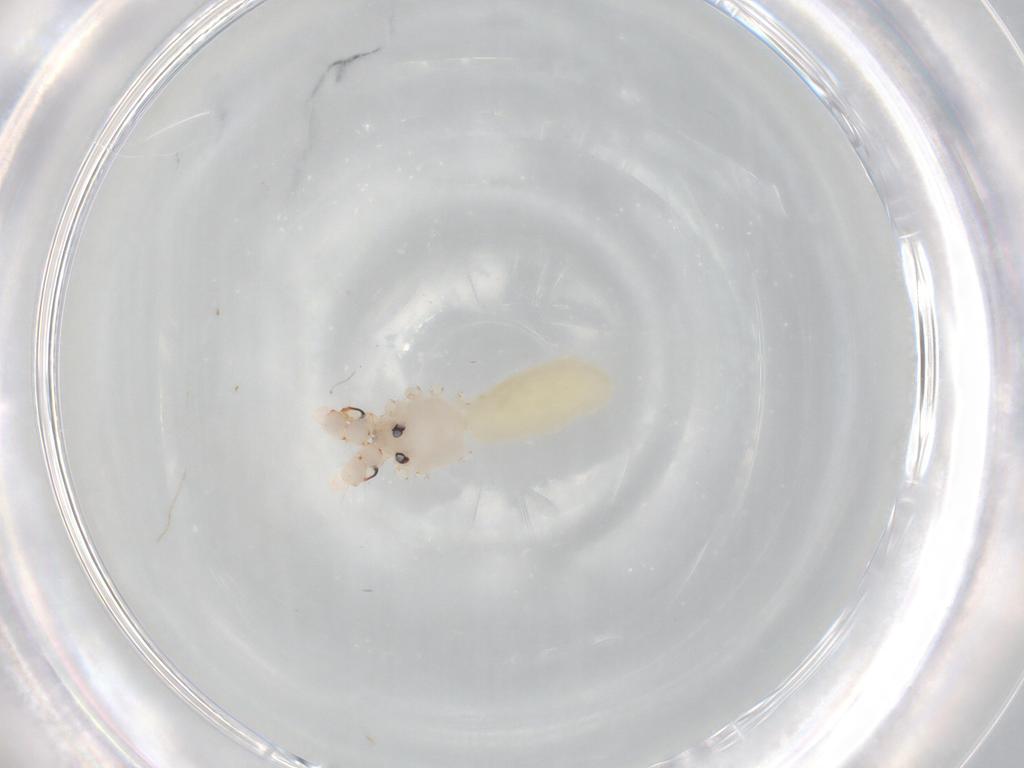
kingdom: Animalia
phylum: Arthropoda
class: Arachnida
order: Araneae
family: Pholcidae
